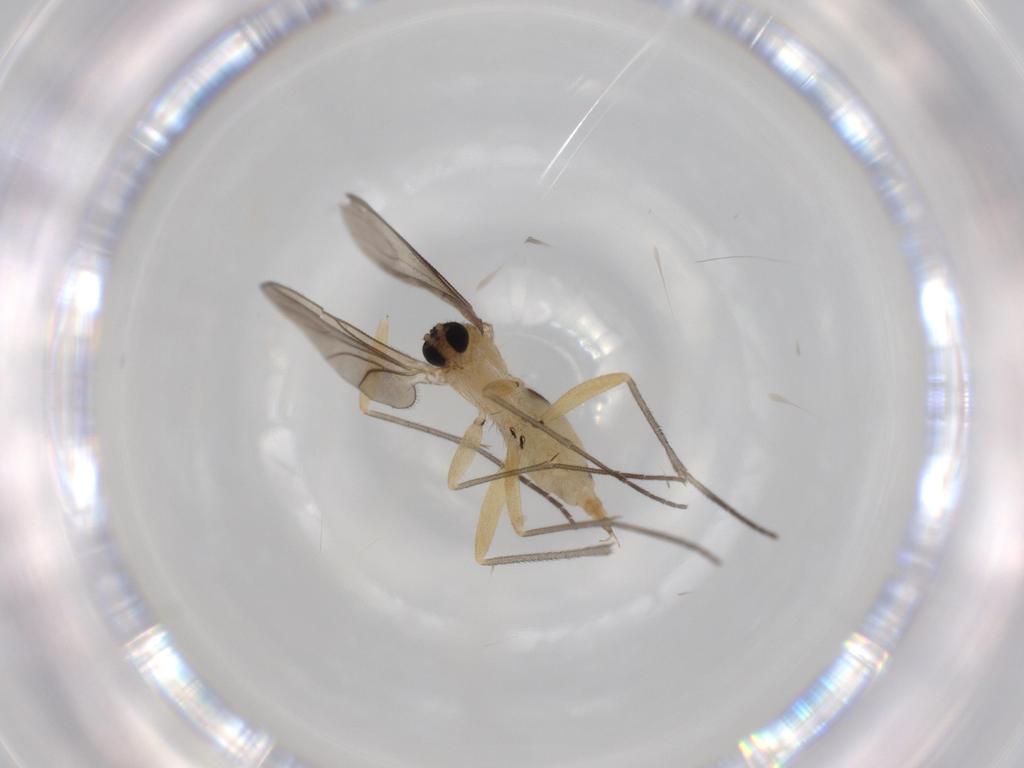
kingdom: Animalia
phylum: Arthropoda
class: Insecta
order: Diptera
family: Sciaridae
